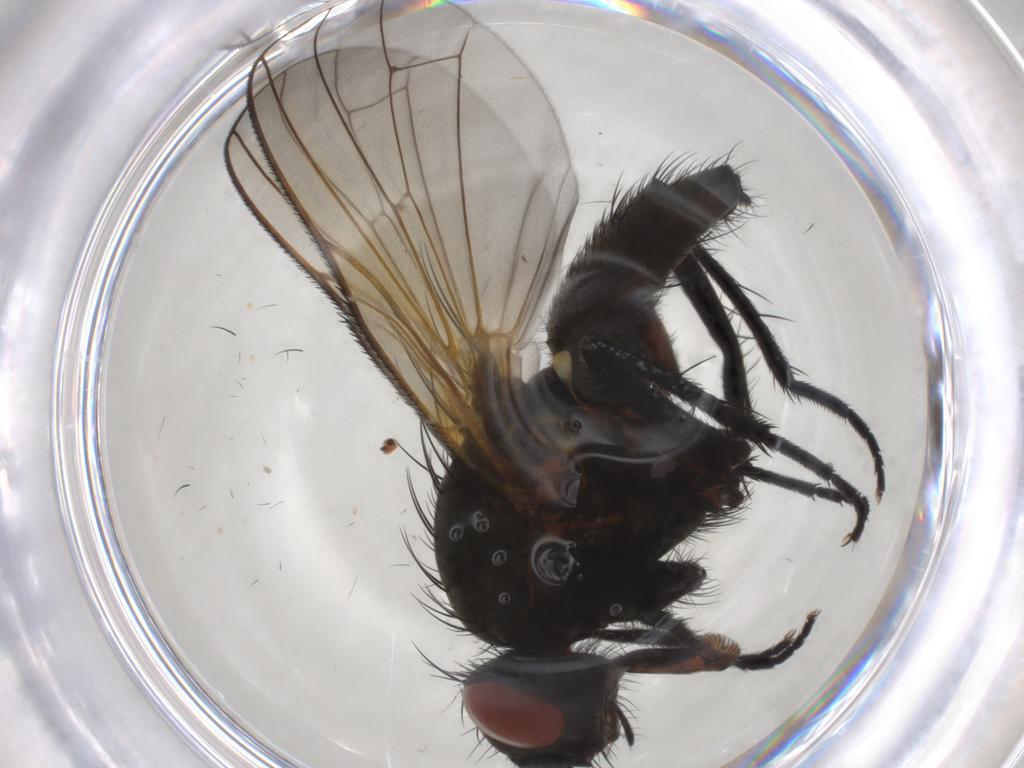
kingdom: Animalia
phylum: Arthropoda
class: Insecta
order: Diptera
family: Anthomyiidae
